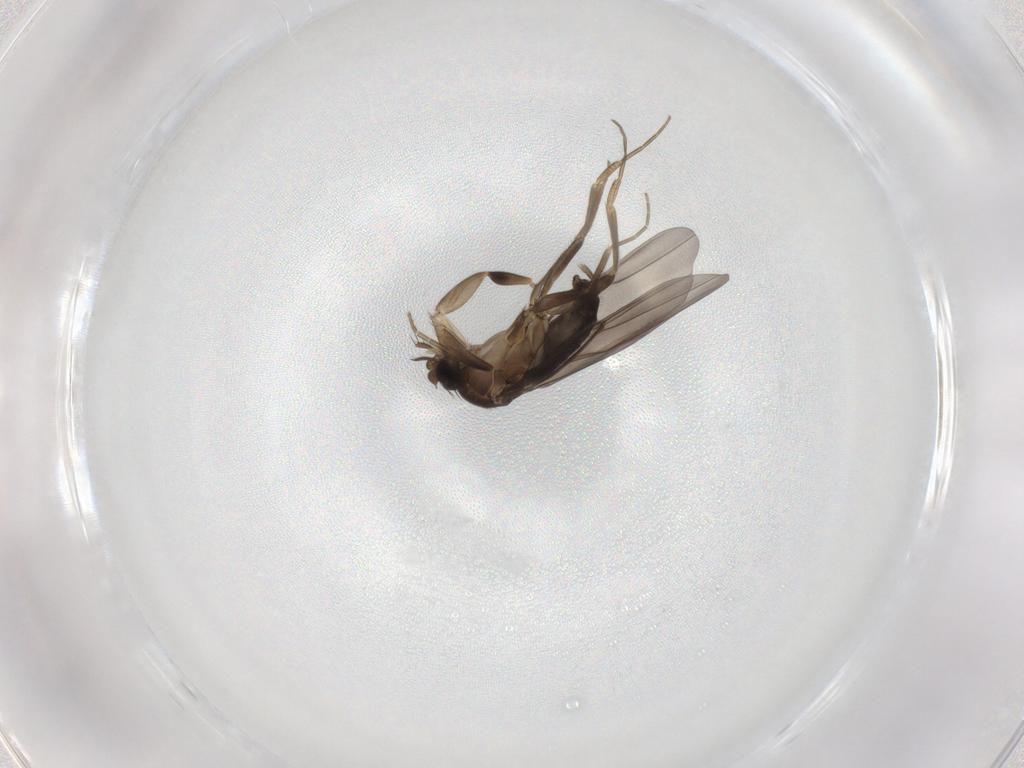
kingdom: Animalia
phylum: Arthropoda
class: Insecta
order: Diptera
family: Phoridae
